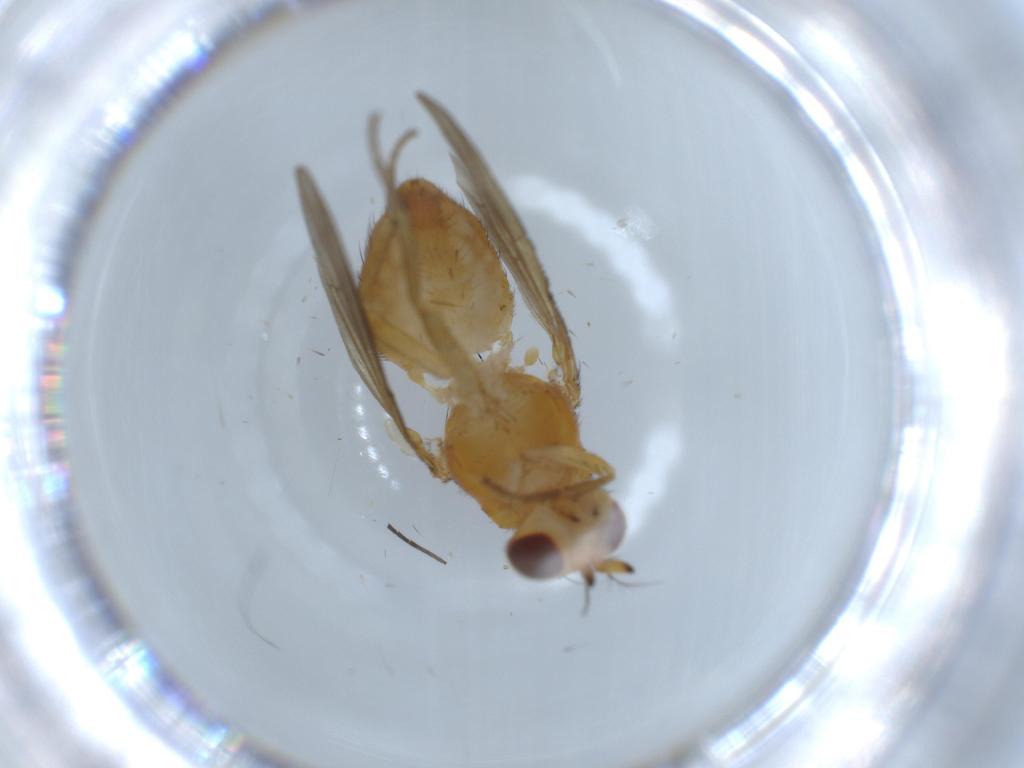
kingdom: Animalia
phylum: Arthropoda
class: Insecta
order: Diptera
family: Lauxaniidae
